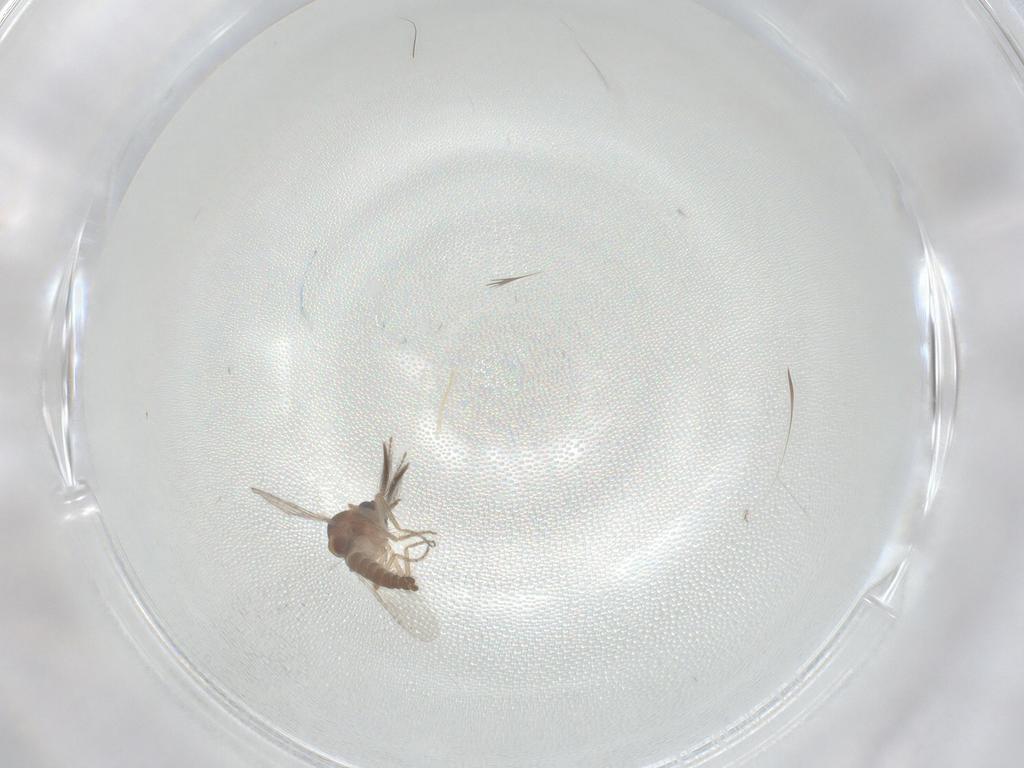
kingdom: Animalia
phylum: Arthropoda
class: Insecta
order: Diptera
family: Ceratopogonidae
